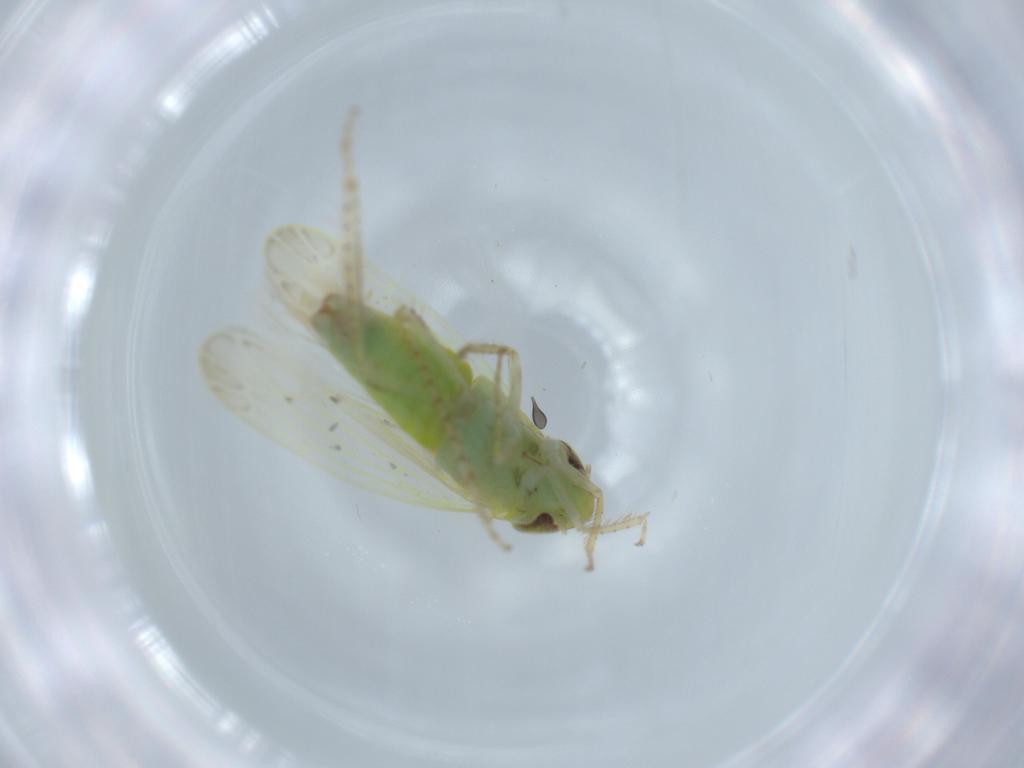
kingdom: Animalia
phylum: Arthropoda
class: Insecta
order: Hemiptera
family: Cicadellidae
